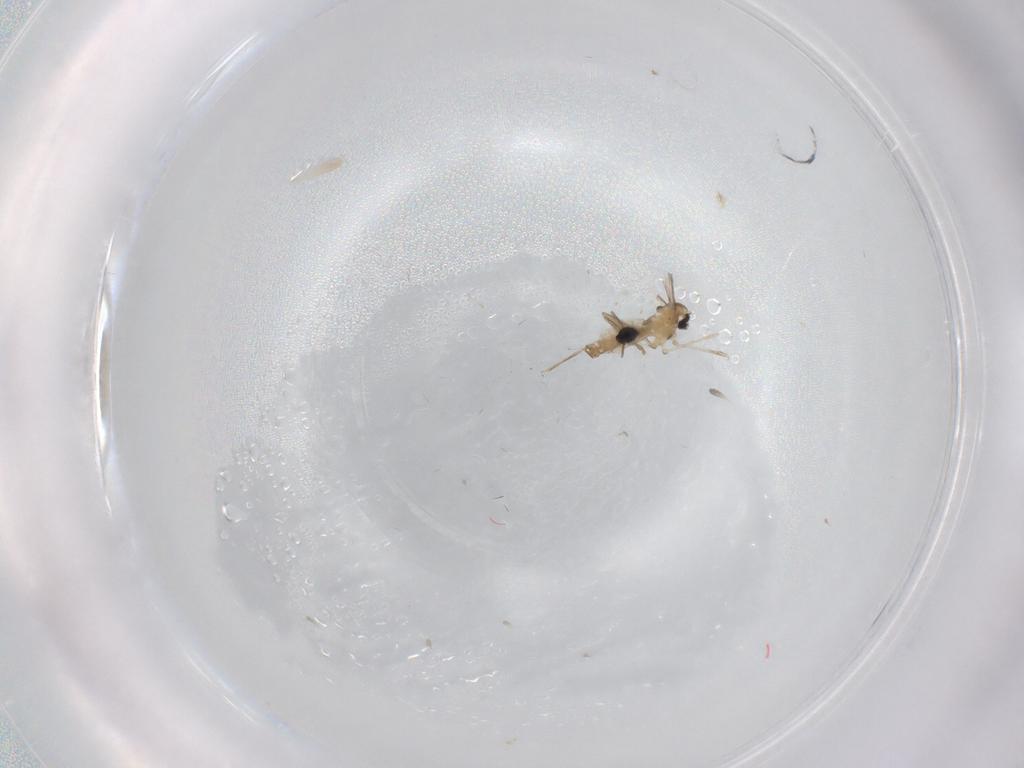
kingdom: Animalia
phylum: Arthropoda
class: Insecta
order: Diptera
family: Cecidomyiidae
